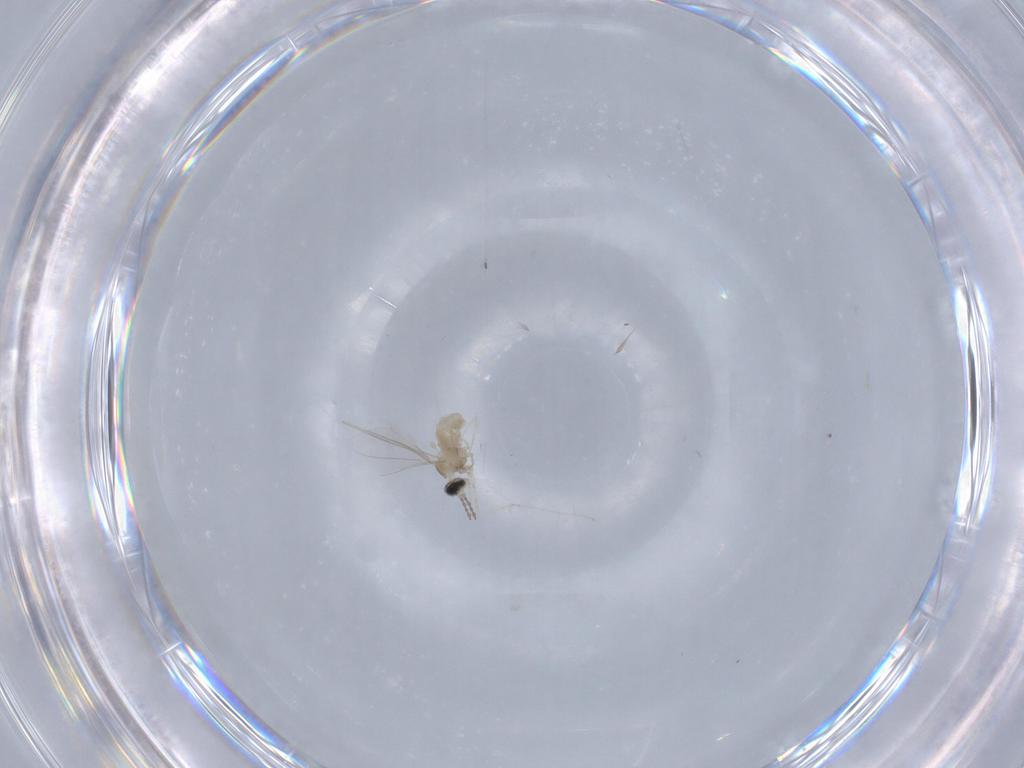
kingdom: Animalia
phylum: Arthropoda
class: Insecta
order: Diptera
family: Cecidomyiidae
